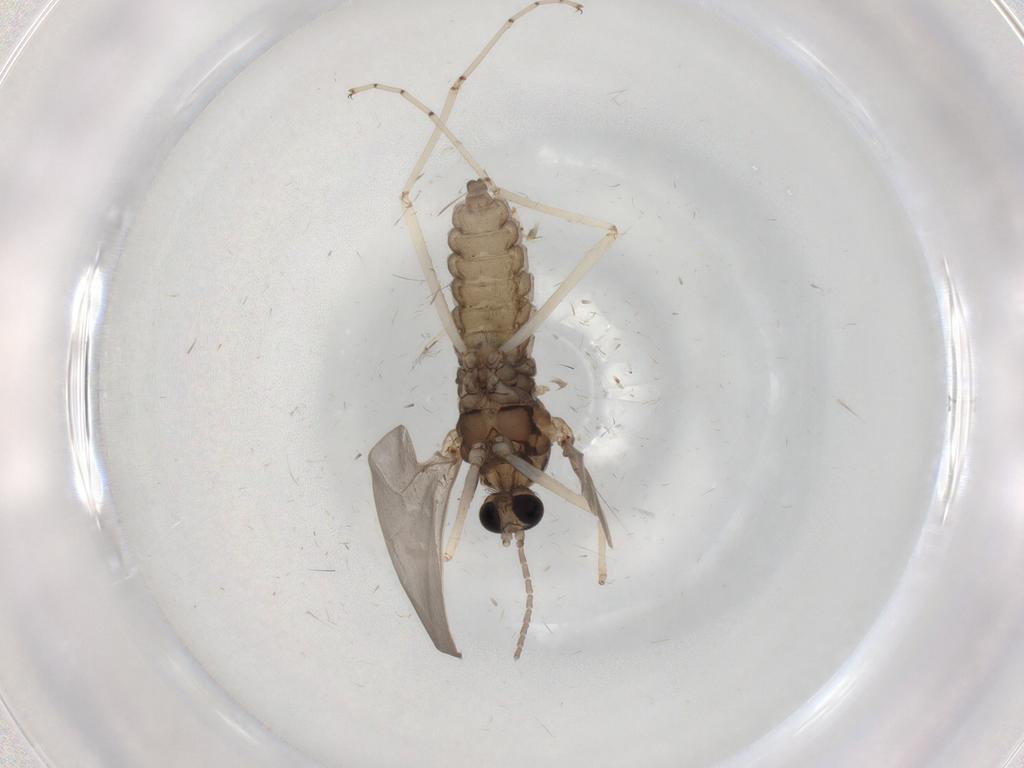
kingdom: Animalia
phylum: Arthropoda
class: Insecta
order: Diptera
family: Cecidomyiidae
